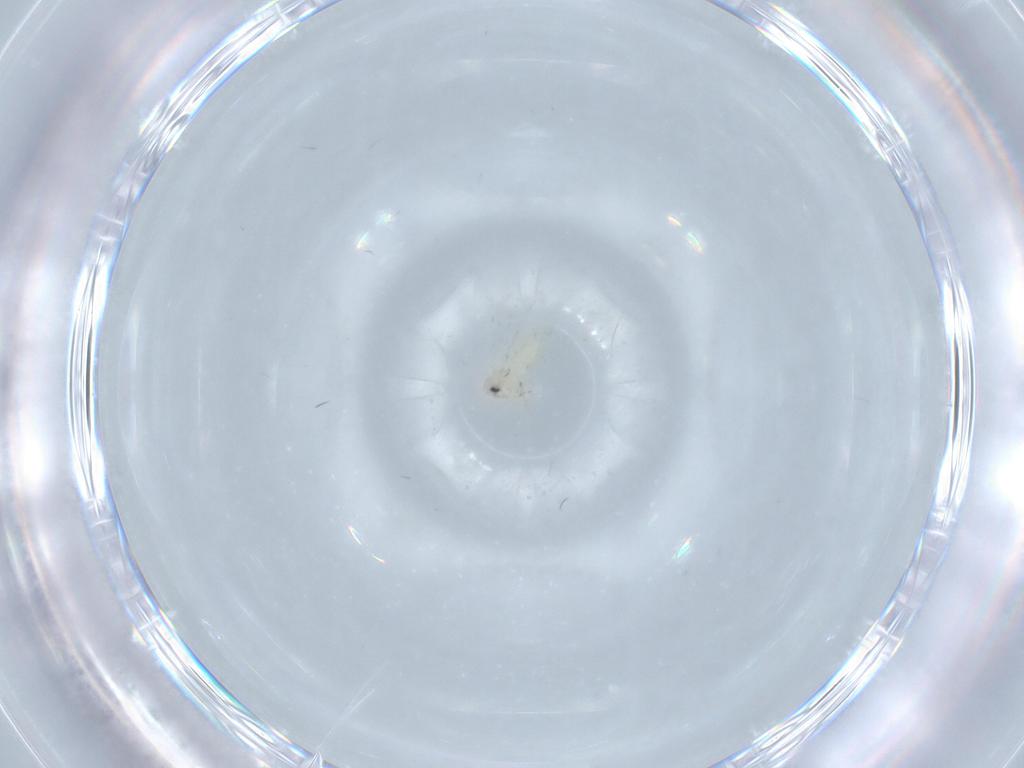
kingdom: Animalia
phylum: Arthropoda
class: Insecta
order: Hemiptera
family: Aleyrodidae
